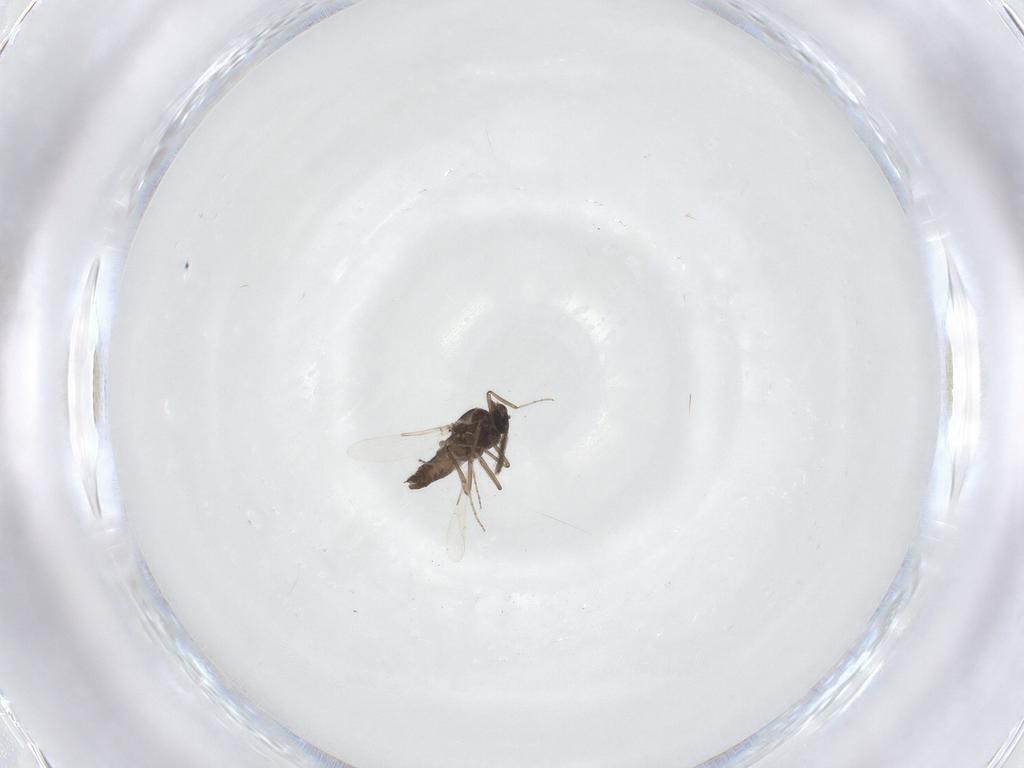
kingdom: Animalia
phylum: Arthropoda
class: Insecta
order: Diptera
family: Ceratopogonidae
